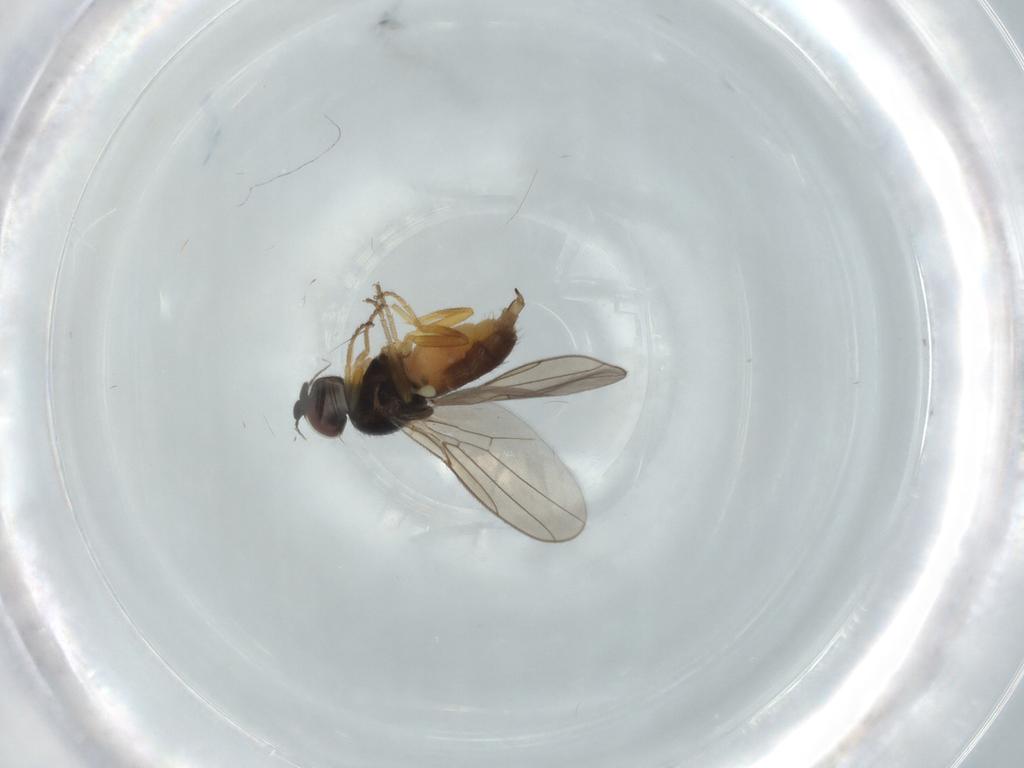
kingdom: Animalia
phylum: Arthropoda
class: Insecta
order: Diptera
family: Chloropidae
